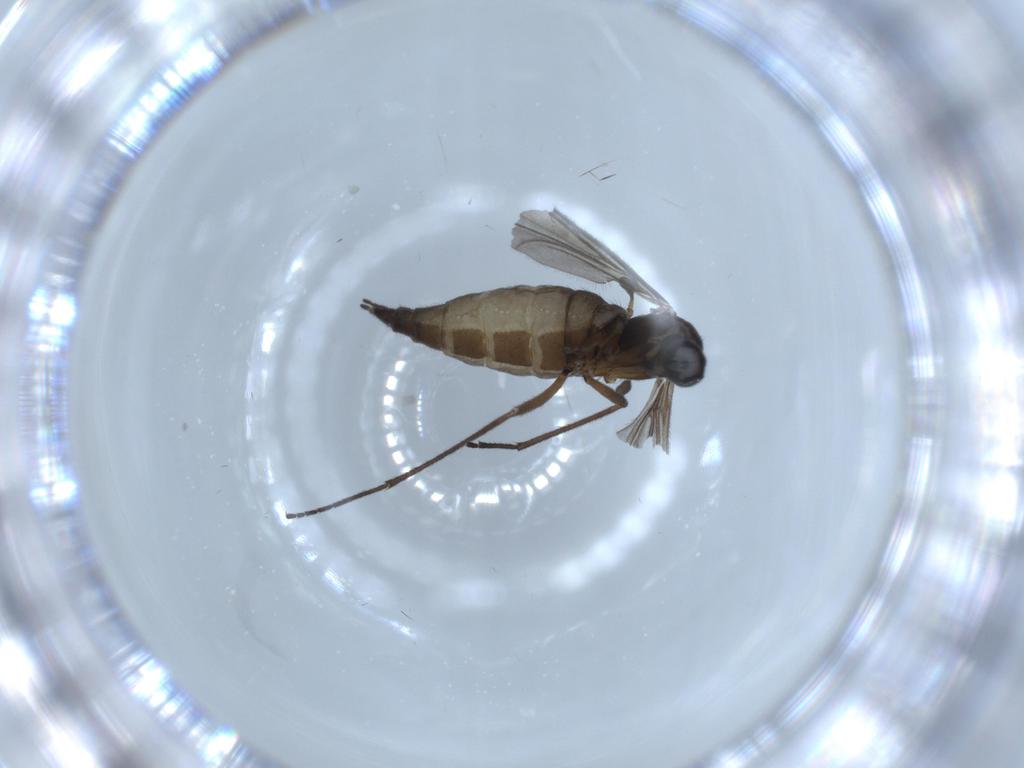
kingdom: Animalia
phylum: Arthropoda
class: Insecta
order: Diptera
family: Sciaridae
